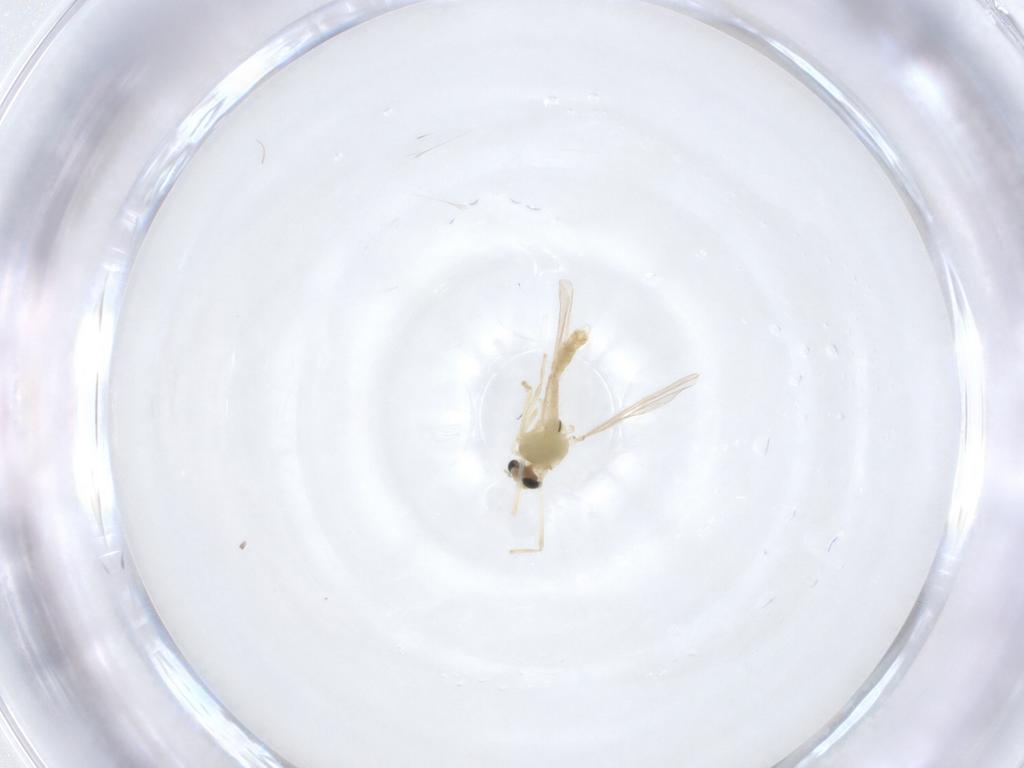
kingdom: Animalia
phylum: Arthropoda
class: Insecta
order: Diptera
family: Chironomidae
